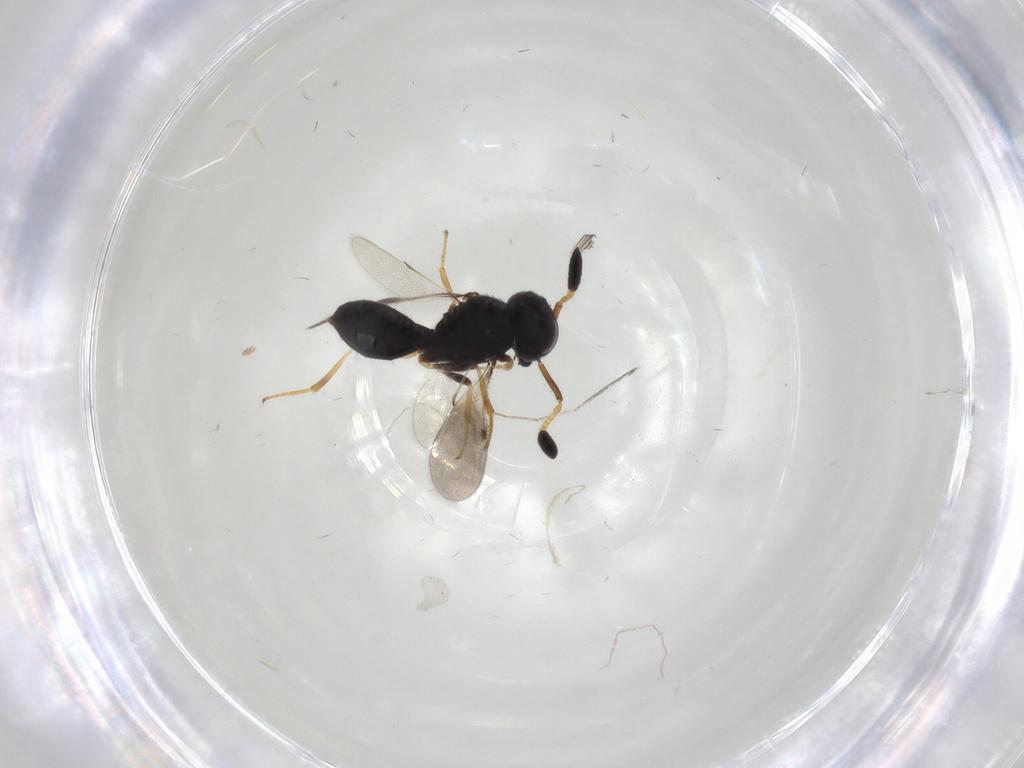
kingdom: Animalia
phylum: Arthropoda
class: Insecta
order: Hymenoptera
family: Scelionidae
